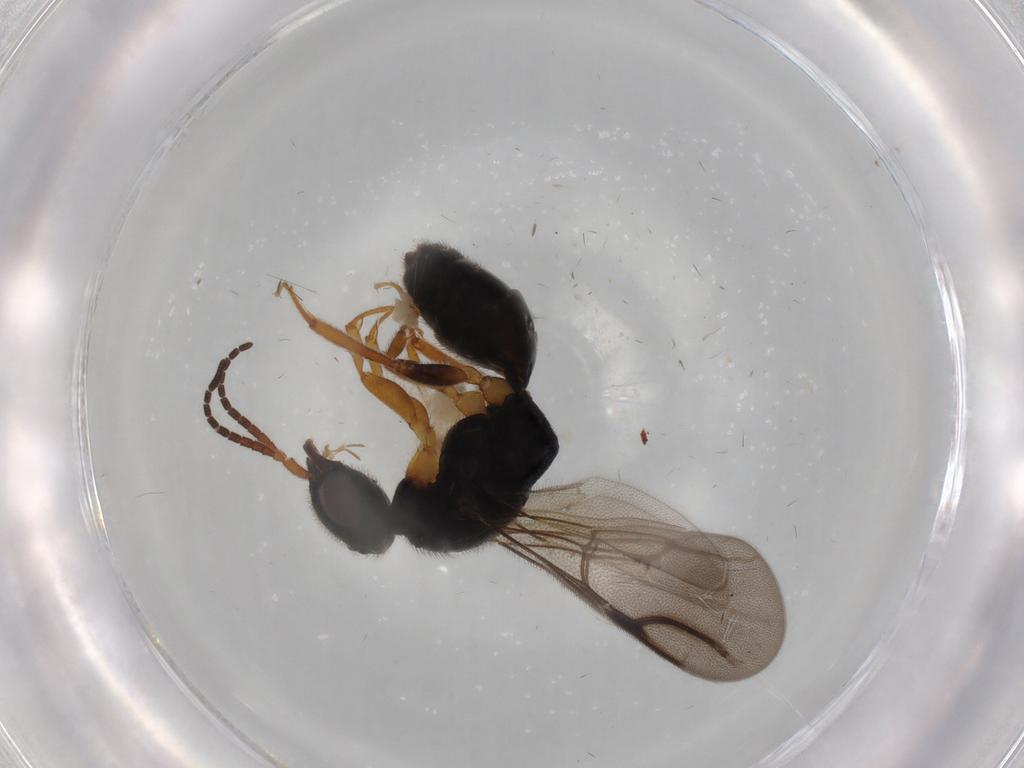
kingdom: Animalia
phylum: Arthropoda
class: Insecta
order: Hymenoptera
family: Bethylidae
